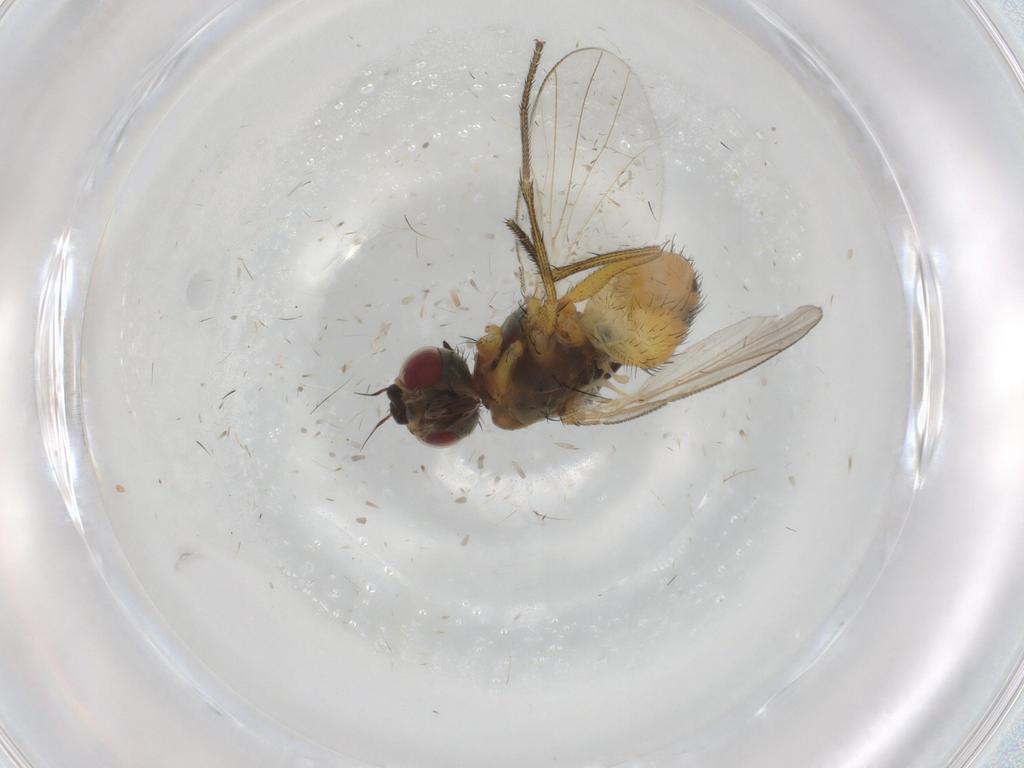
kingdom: Animalia
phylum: Arthropoda
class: Insecta
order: Diptera
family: Muscidae
